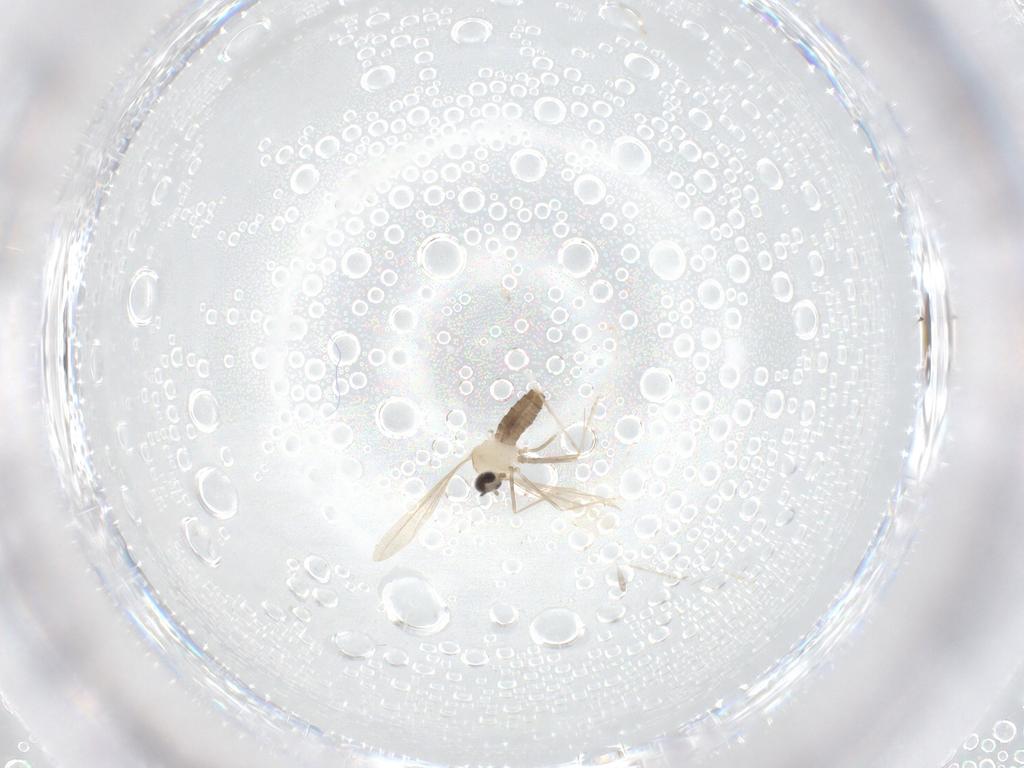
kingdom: Animalia
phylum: Arthropoda
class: Insecta
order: Diptera
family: Cecidomyiidae
